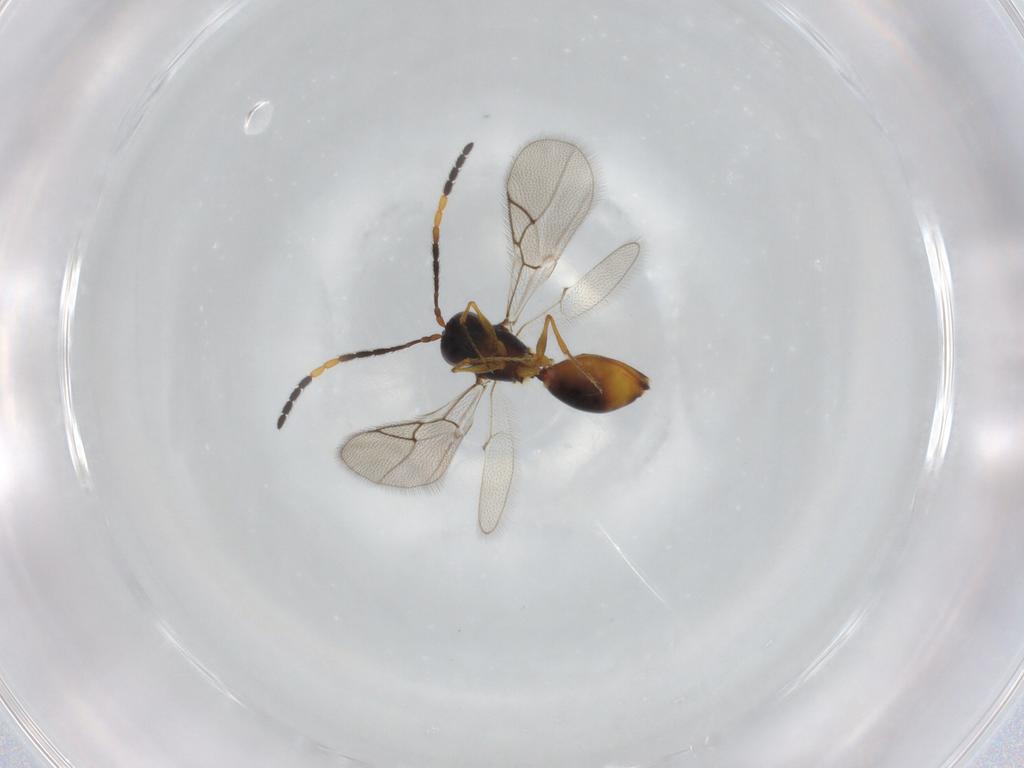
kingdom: Animalia
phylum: Arthropoda
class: Insecta
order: Hymenoptera
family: Figitidae
